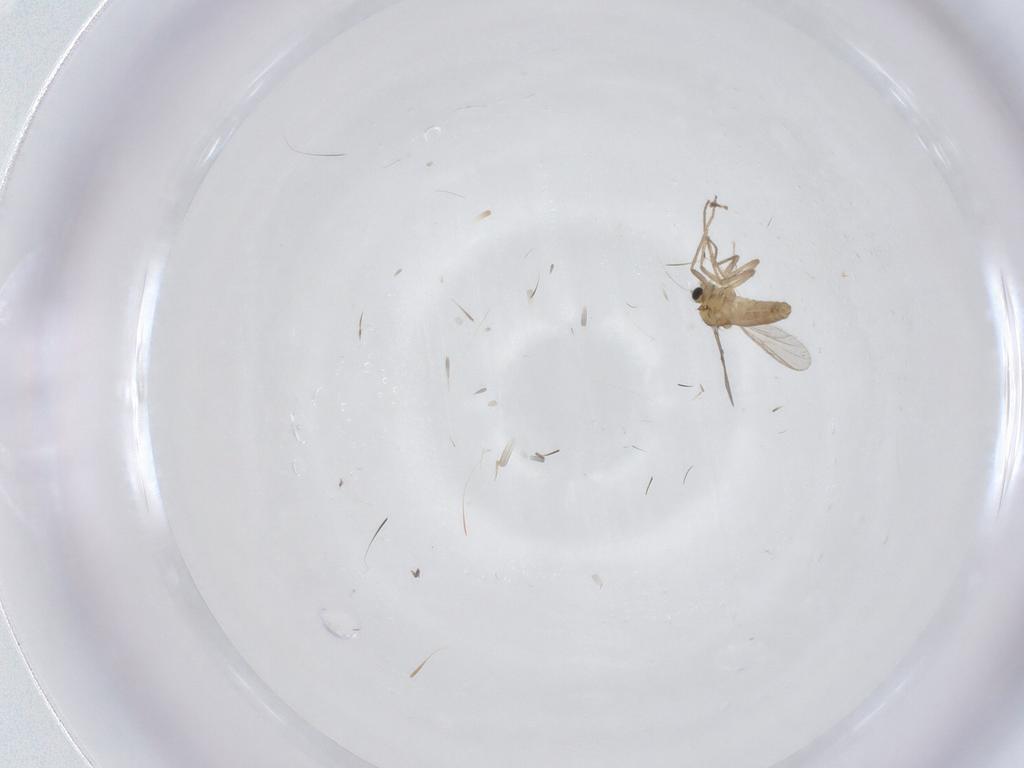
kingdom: Animalia
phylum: Arthropoda
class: Insecta
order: Diptera
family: Chironomidae
